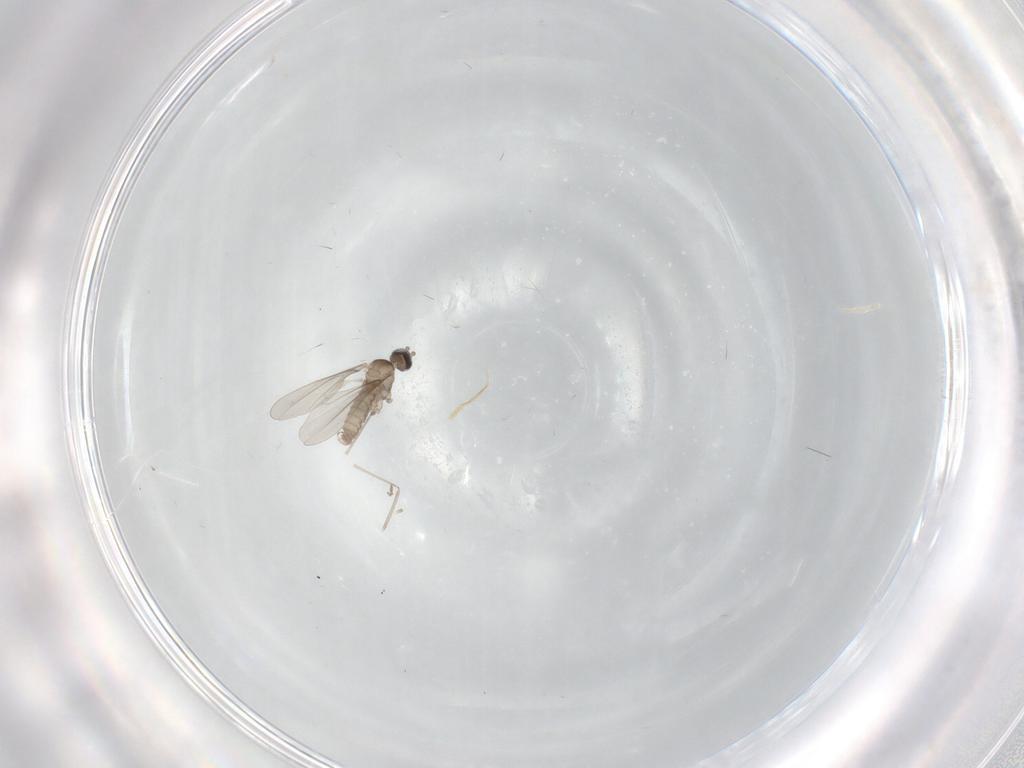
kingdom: Animalia
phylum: Arthropoda
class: Insecta
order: Diptera
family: Cecidomyiidae
